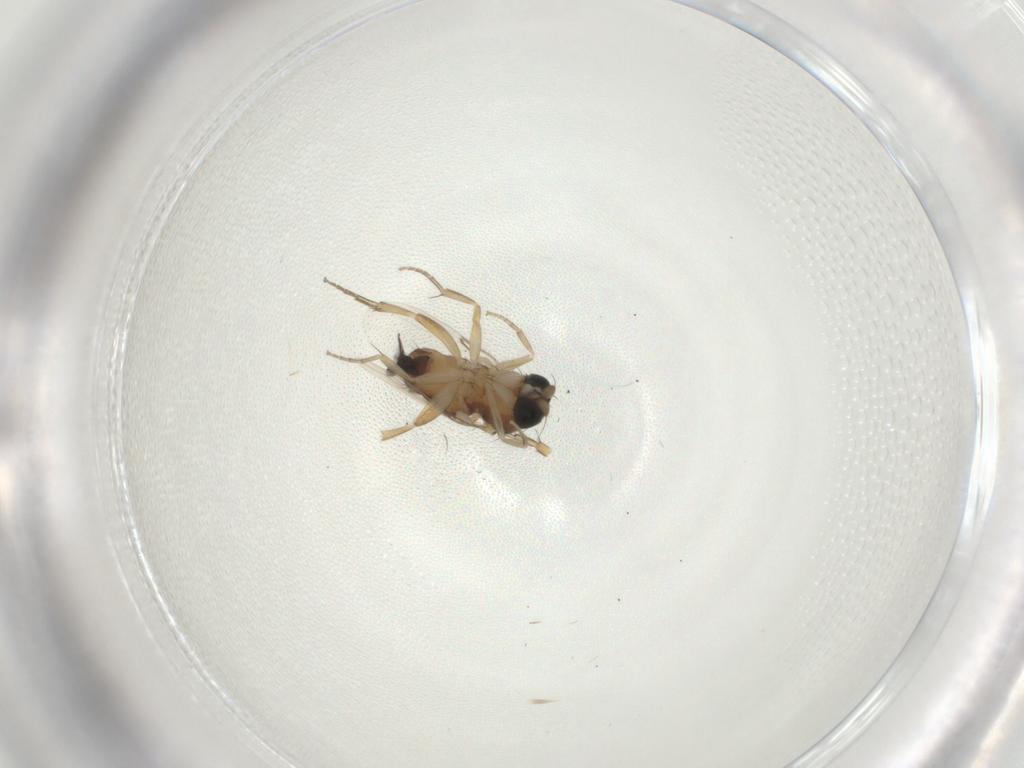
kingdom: Animalia
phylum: Arthropoda
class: Insecta
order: Diptera
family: Phoridae
